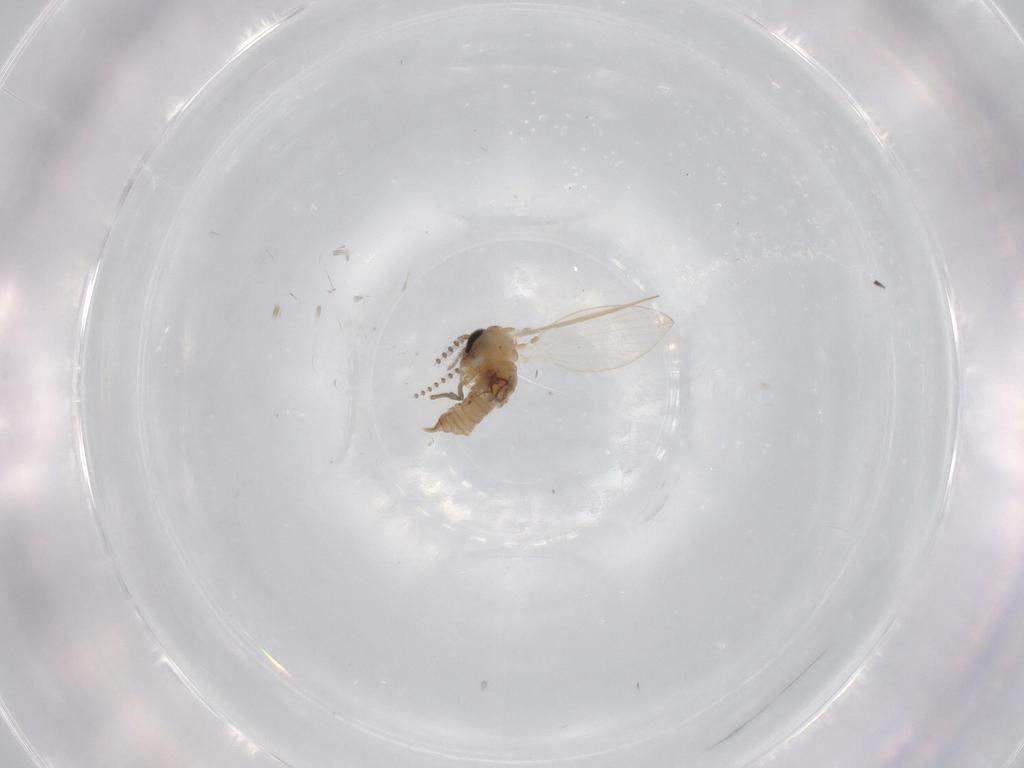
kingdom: Animalia
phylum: Arthropoda
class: Insecta
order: Diptera
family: Psychodidae
